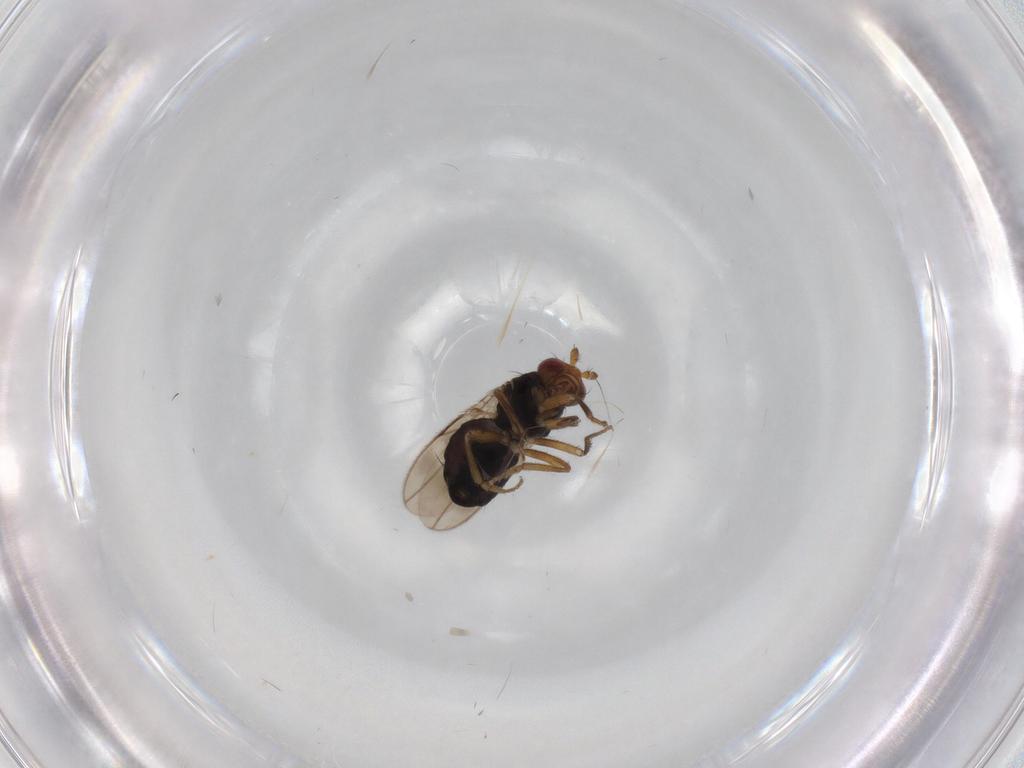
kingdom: Animalia
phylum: Arthropoda
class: Insecta
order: Diptera
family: Sphaeroceridae
